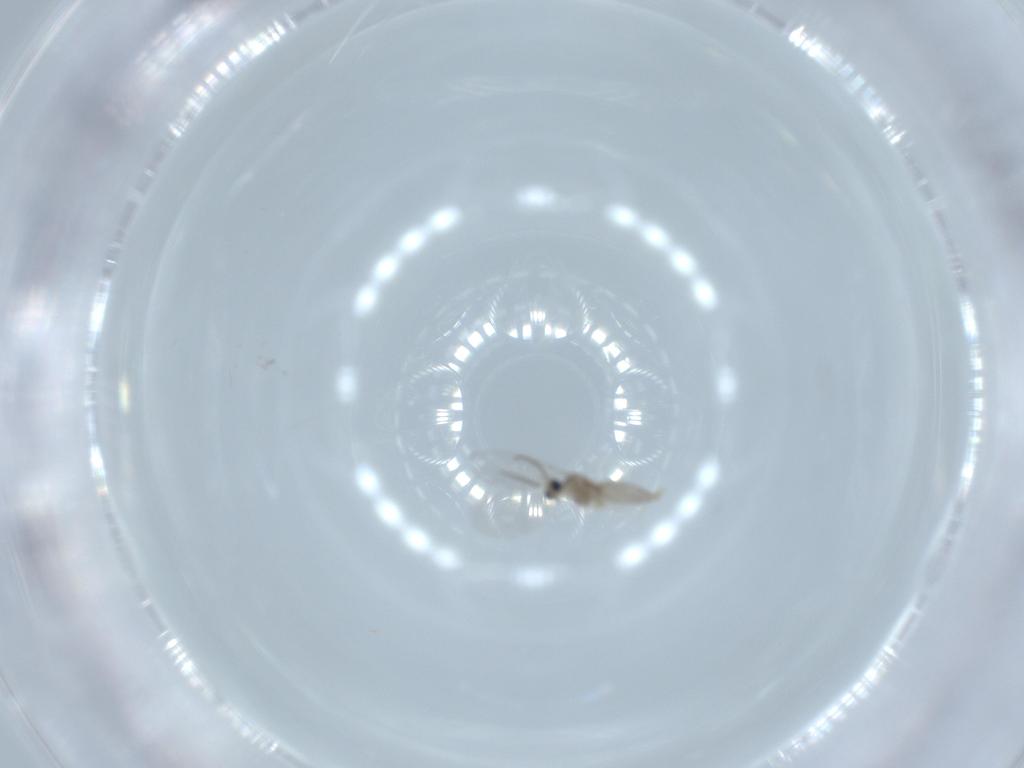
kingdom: Animalia
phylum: Arthropoda
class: Insecta
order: Diptera
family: Cecidomyiidae
